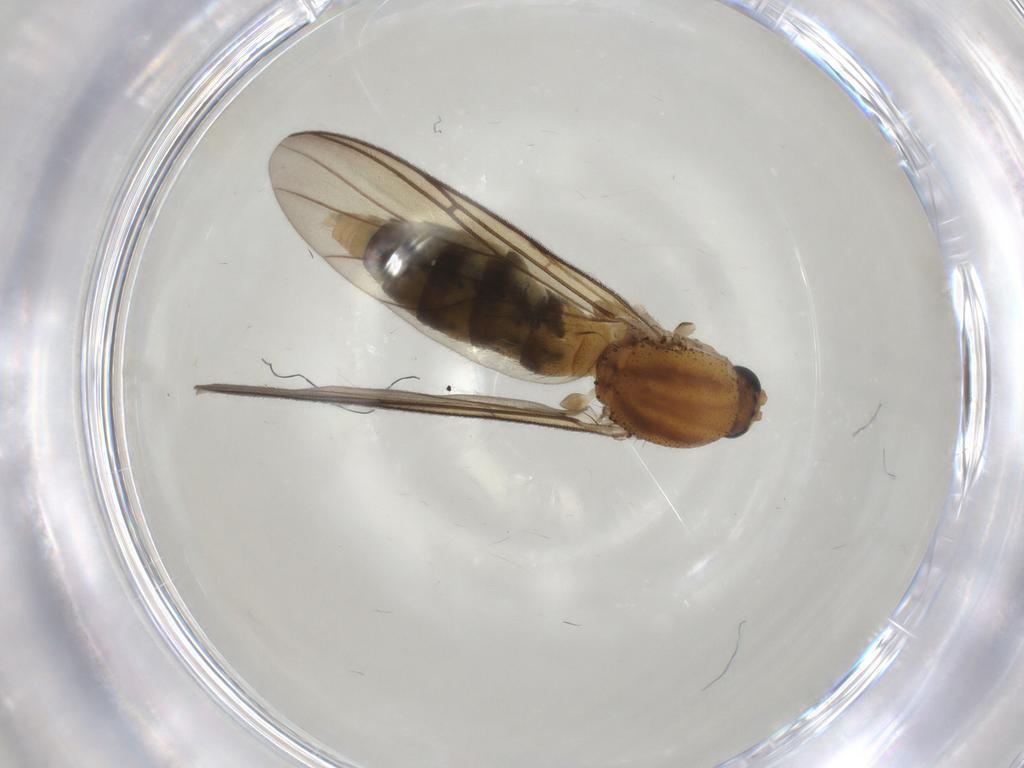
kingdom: Animalia
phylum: Arthropoda
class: Insecta
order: Diptera
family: Mycetophilidae
